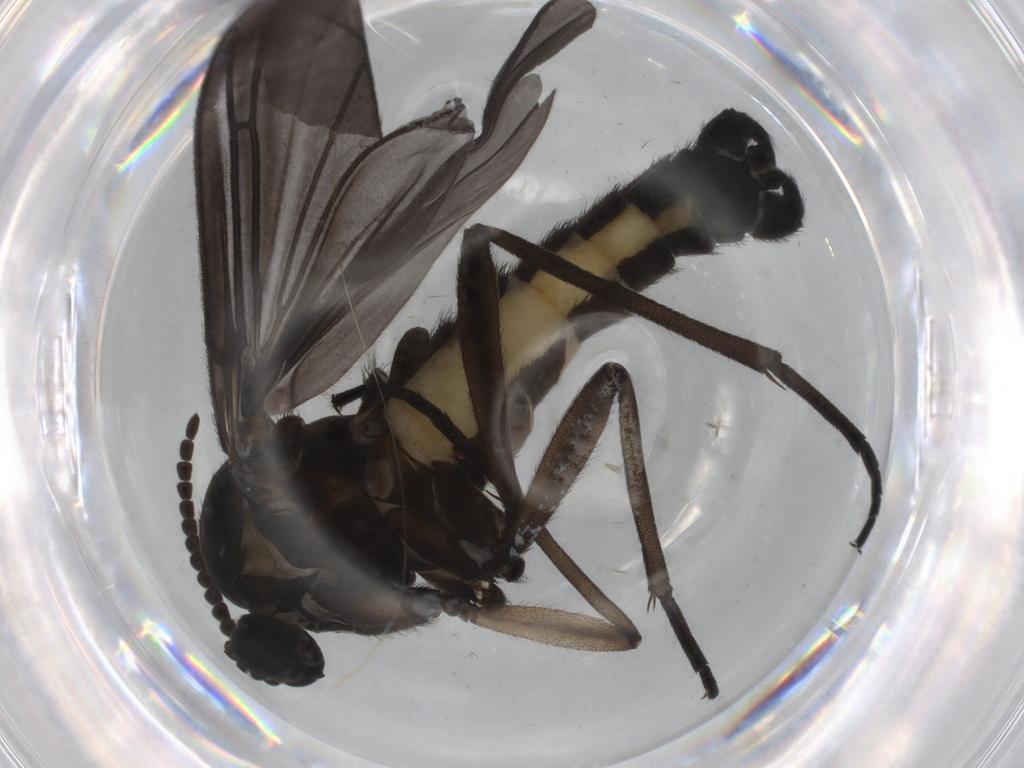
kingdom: Animalia
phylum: Arthropoda
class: Insecta
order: Diptera
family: Sciaridae
